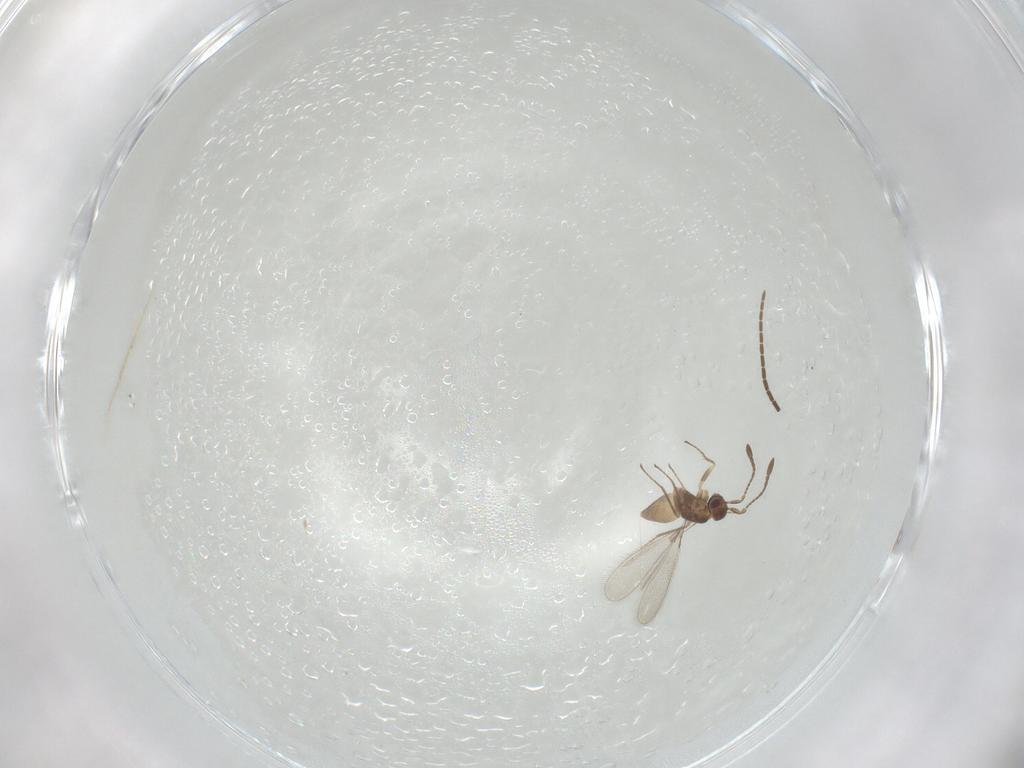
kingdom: Animalia
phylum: Arthropoda
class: Insecta
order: Hymenoptera
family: Mymaridae
